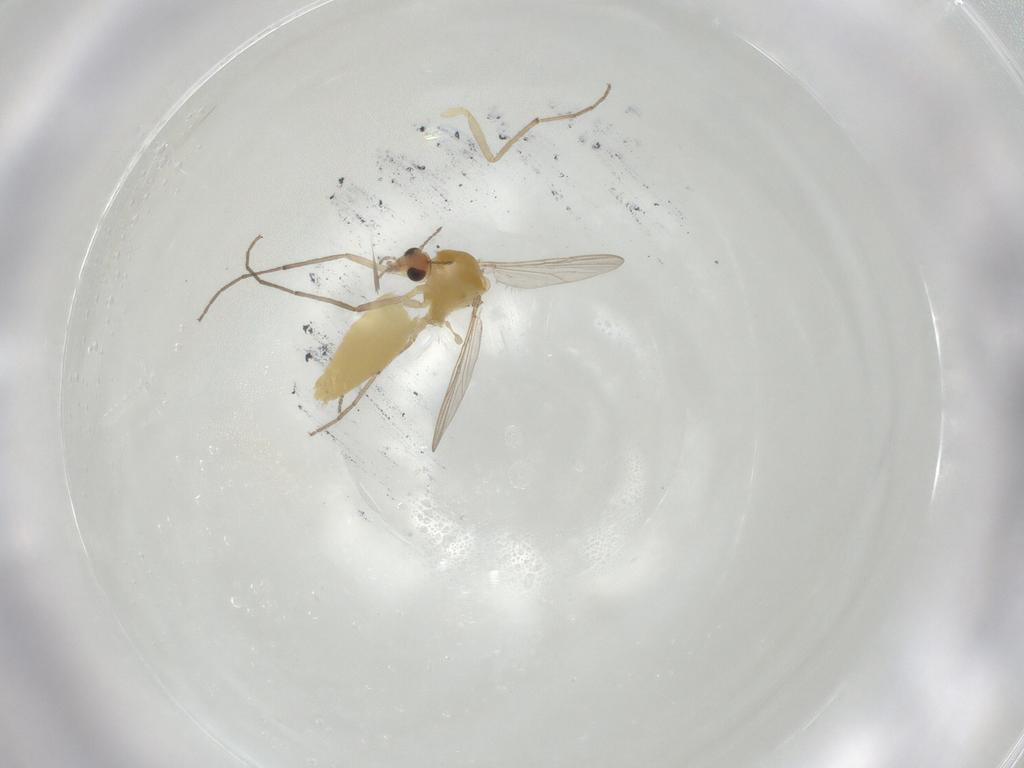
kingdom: Animalia
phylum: Arthropoda
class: Insecta
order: Diptera
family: Chironomidae
